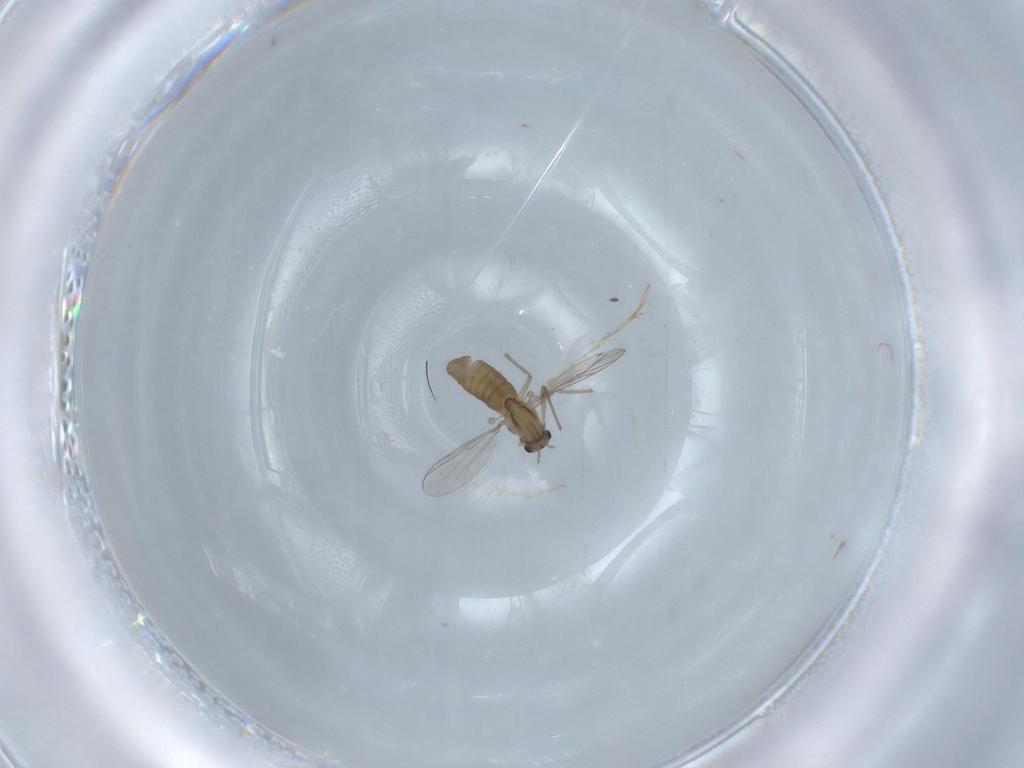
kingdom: Animalia
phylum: Arthropoda
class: Insecta
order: Diptera
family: Chironomidae
